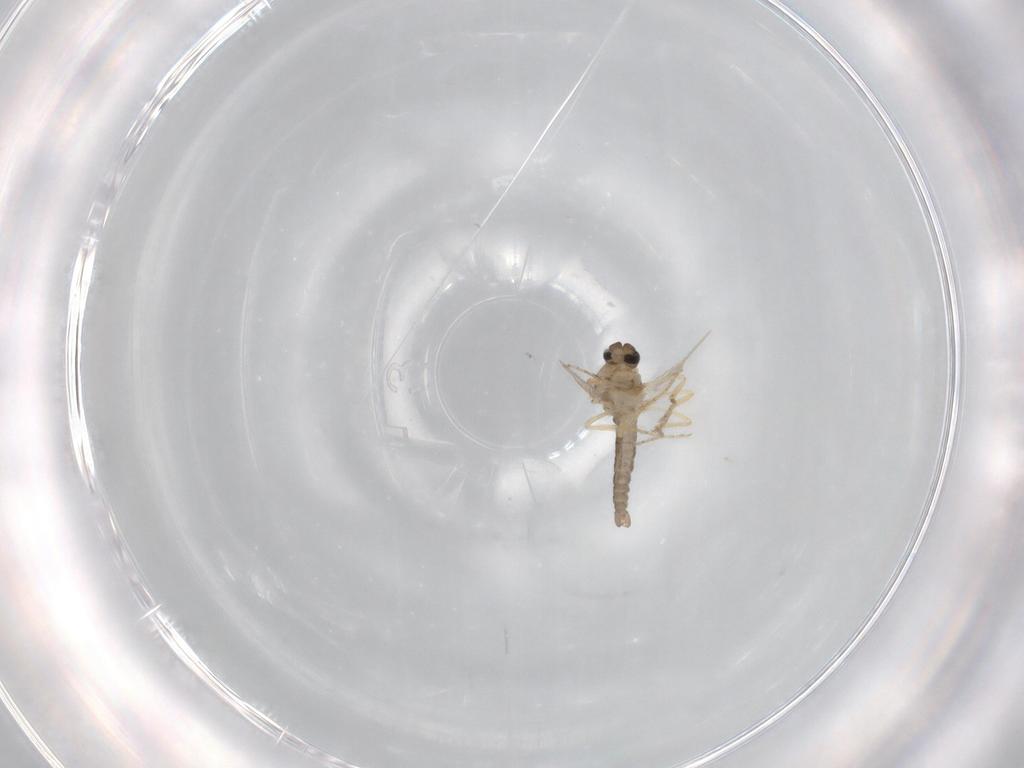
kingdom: Animalia
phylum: Arthropoda
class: Insecta
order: Diptera
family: Ceratopogonidae
